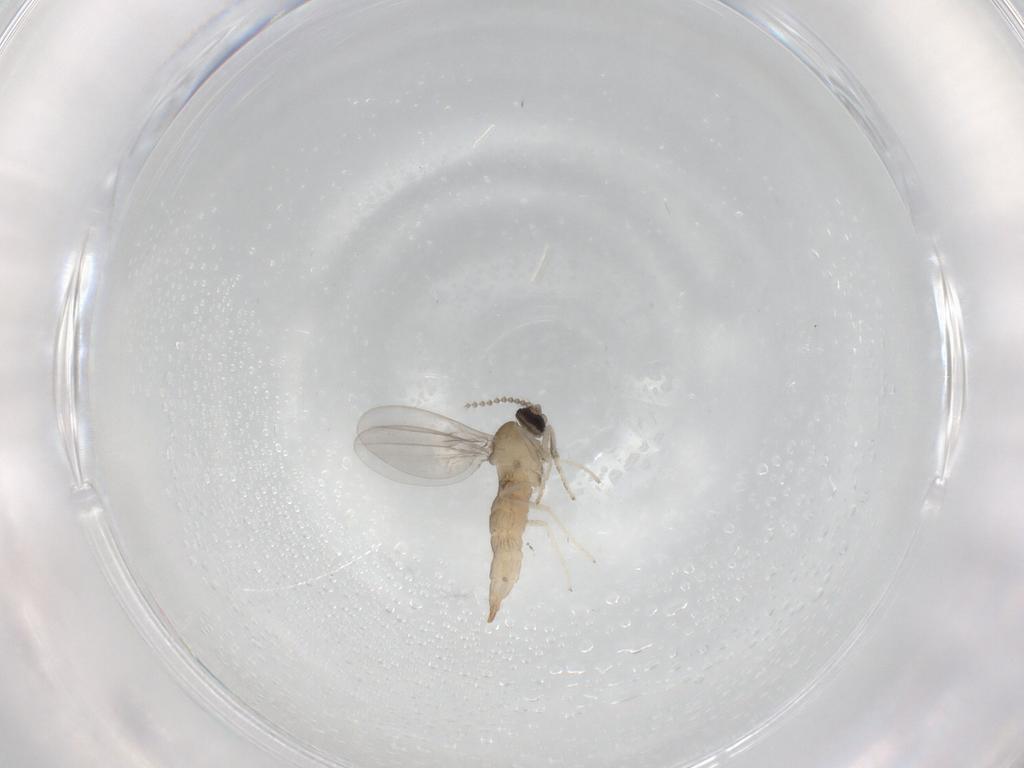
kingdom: Animalia
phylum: Arthropoda
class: Insecta
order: Diptera
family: Cecidomyiidae
